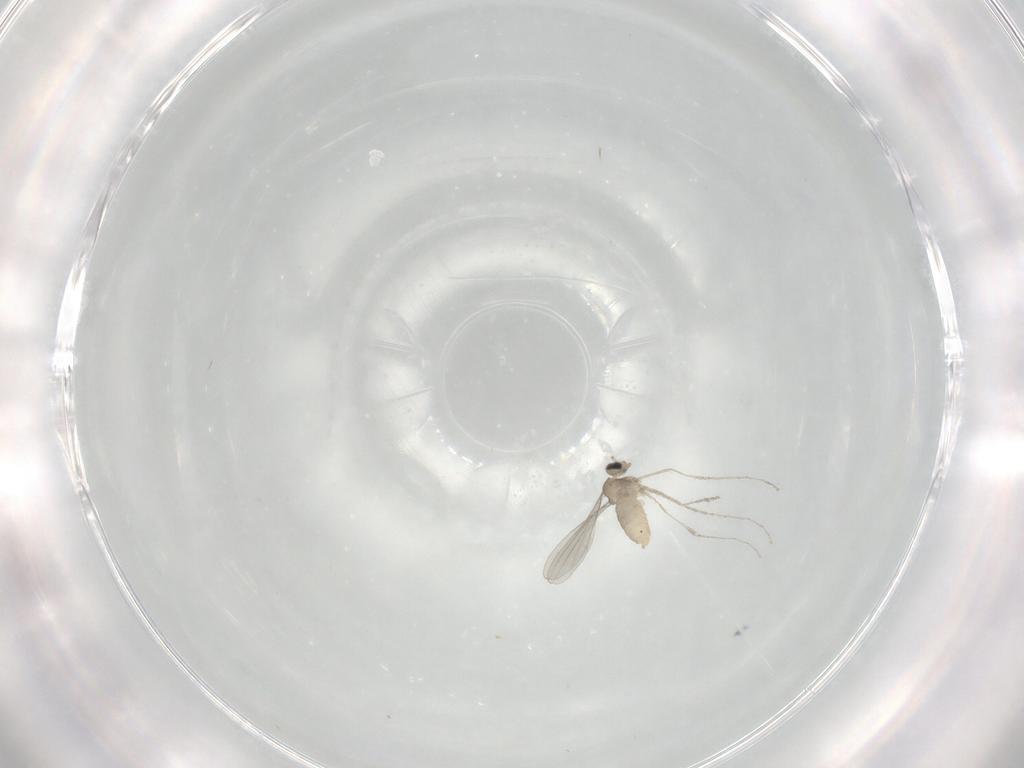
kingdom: Animalia
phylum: Arthropoda
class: Insecta
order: Diptera
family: Cecidomyiidae
